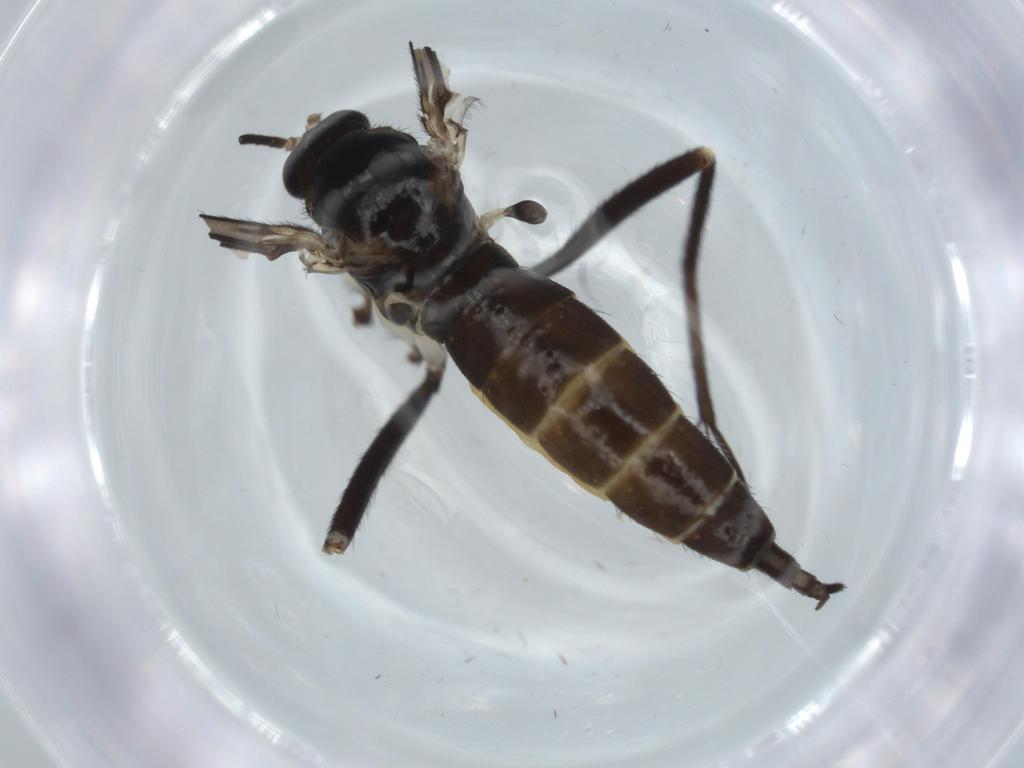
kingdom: Animalia
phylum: Arthropoda
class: Insecta
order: Diptera
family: Sciaridae
